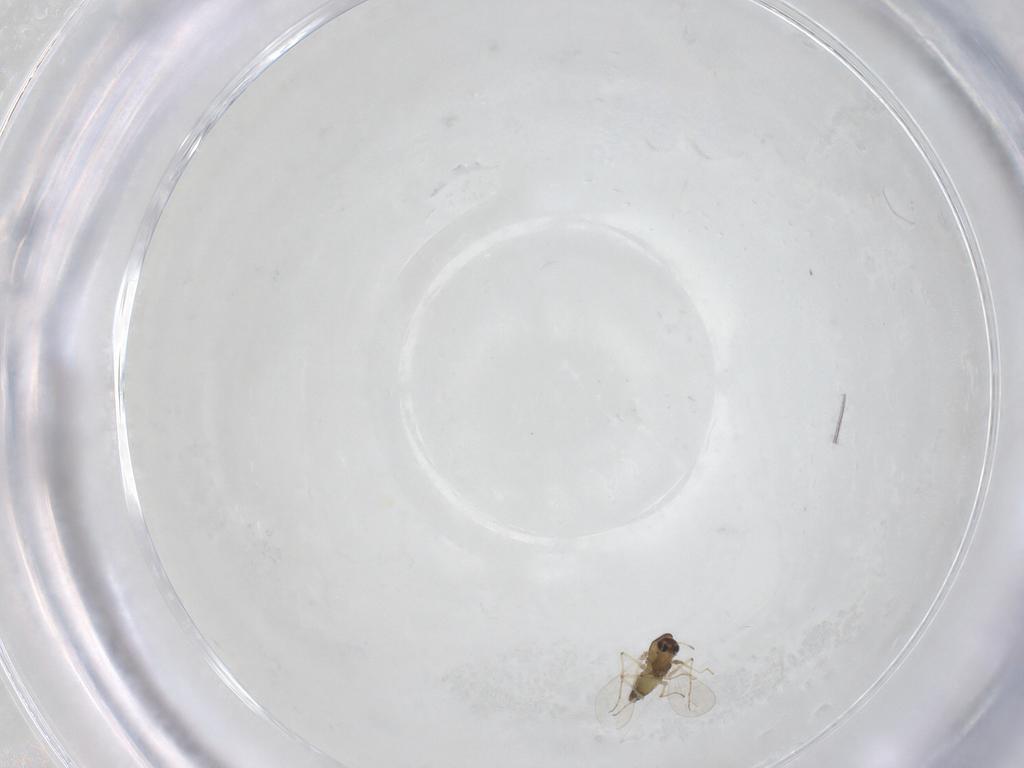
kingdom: Animalia
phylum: Arthropoda
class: Insecta
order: Diptera
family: Chironomidae
